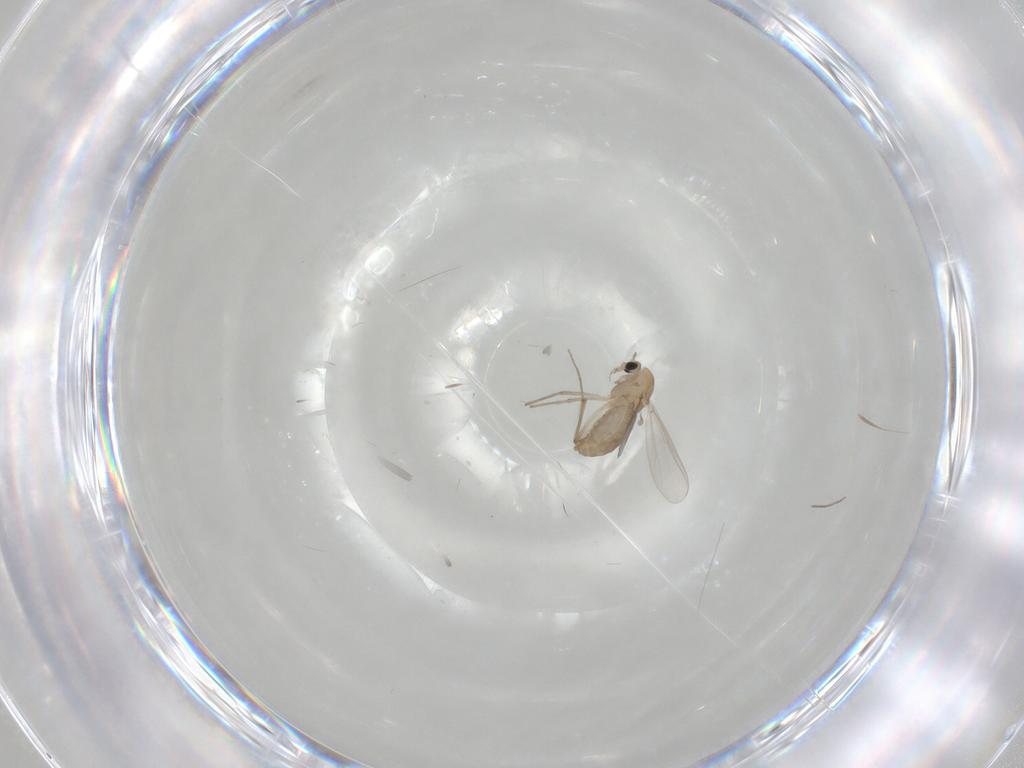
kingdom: Animalia
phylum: Arthropoda
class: Insecta
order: Diptera
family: Chironomidae
